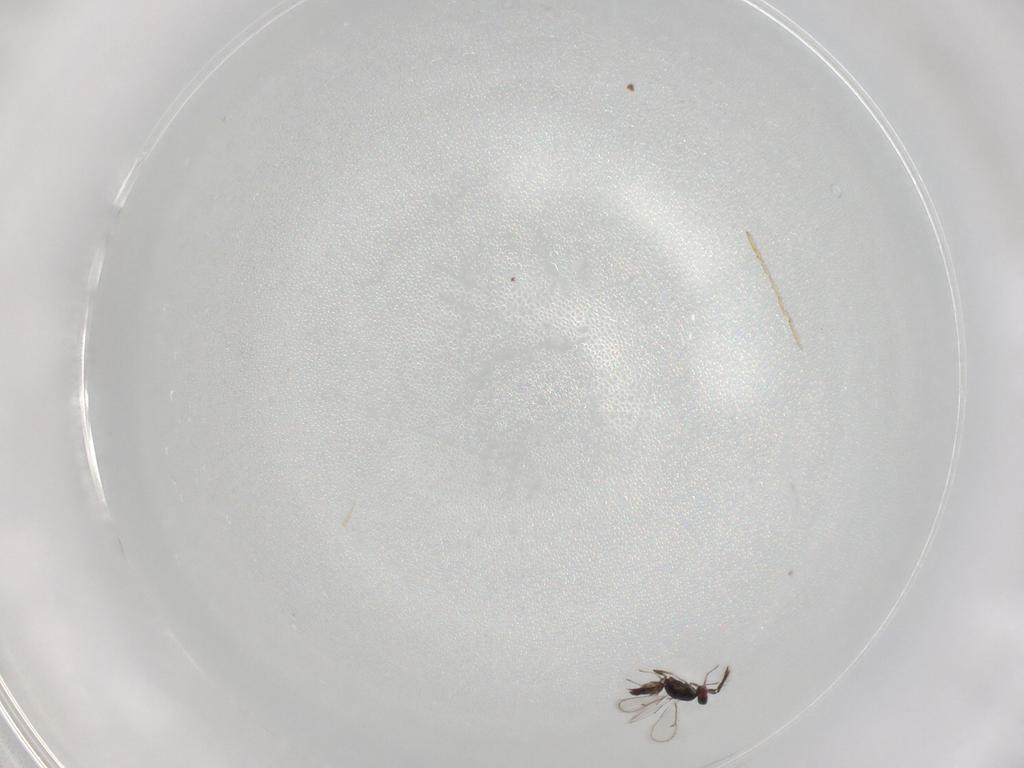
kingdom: Animalia
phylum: Arthropoda
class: Insecta
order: Hymenoptera
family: Scelionidae
